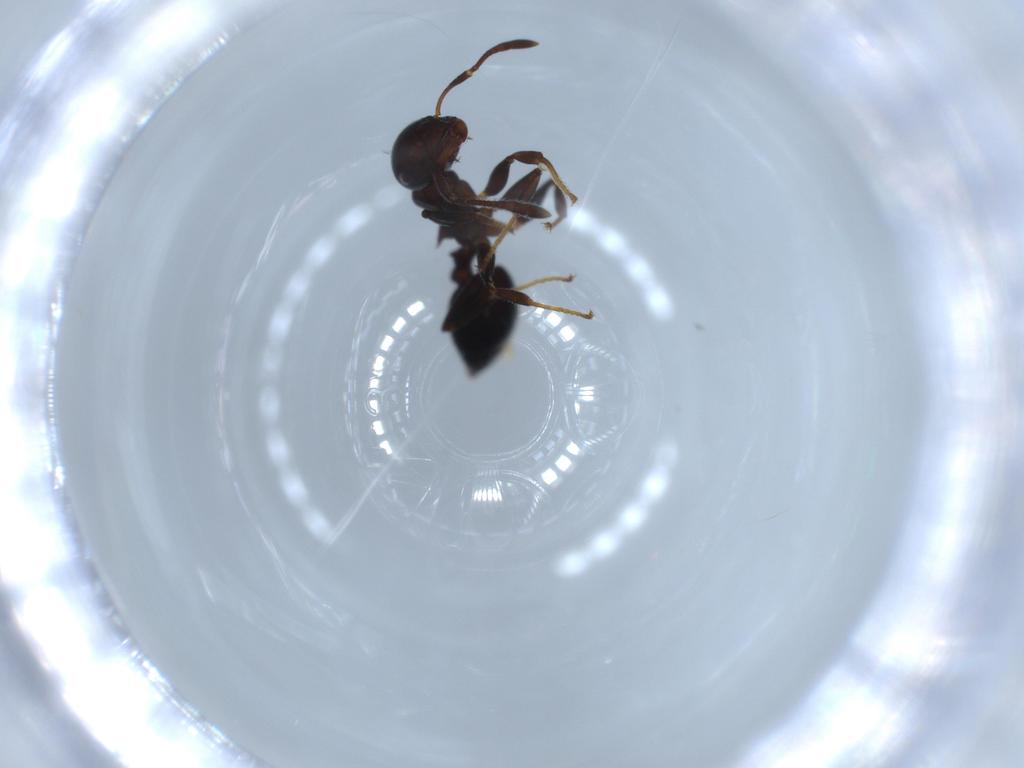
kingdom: Animalia
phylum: Arthropoda
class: Insecta
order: Hymenoptera
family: Formicidae
